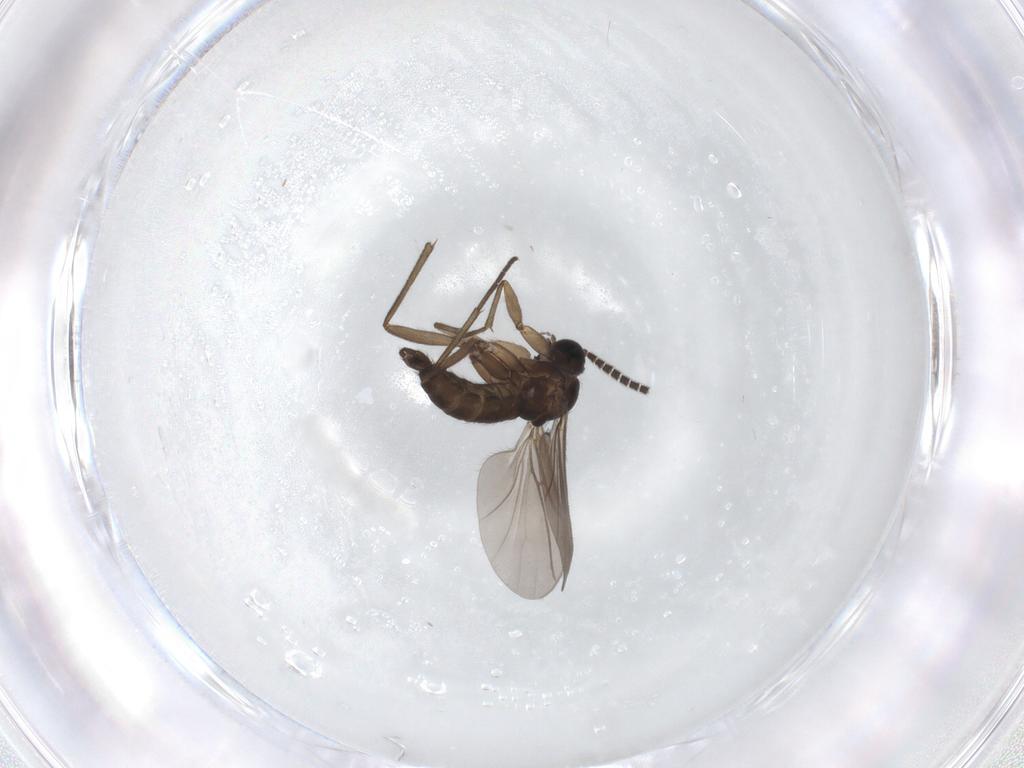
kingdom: Animalia
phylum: Arthropoda
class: Insecta
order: Diptera
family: Sciaridae
